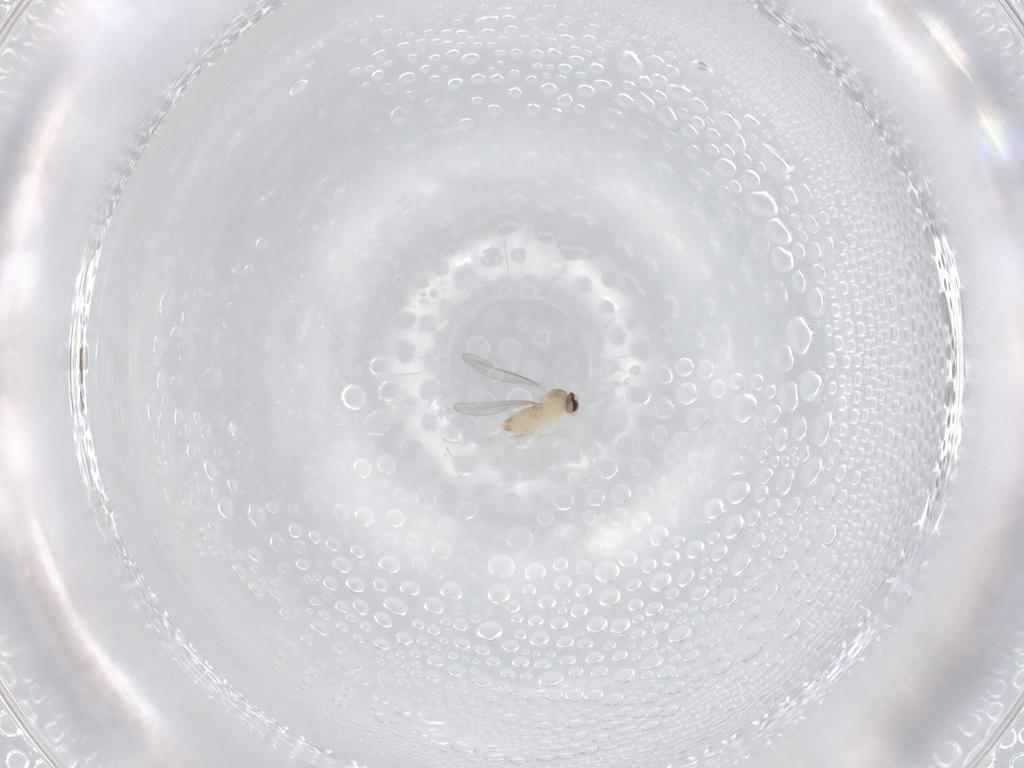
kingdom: Animalia
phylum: Arthropoda
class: Insecta
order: Diptera
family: Cecidomyiidae
